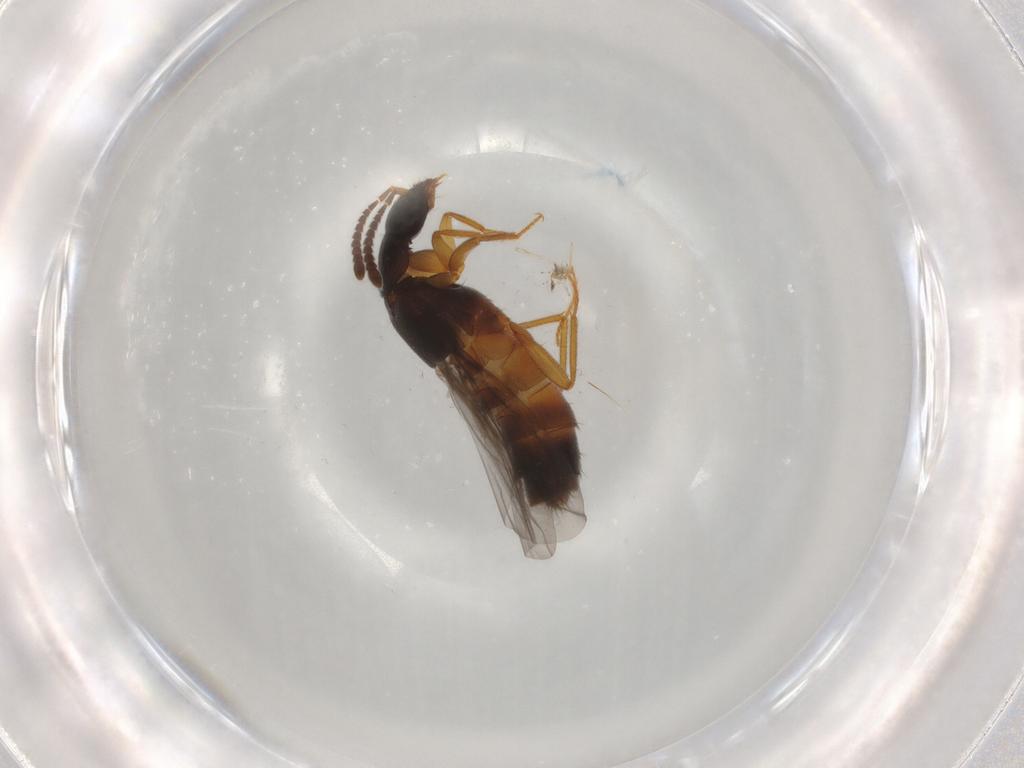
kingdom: Animalia
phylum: Arthropoda
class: Insecta
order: Coleoptera
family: Staphylinidae
